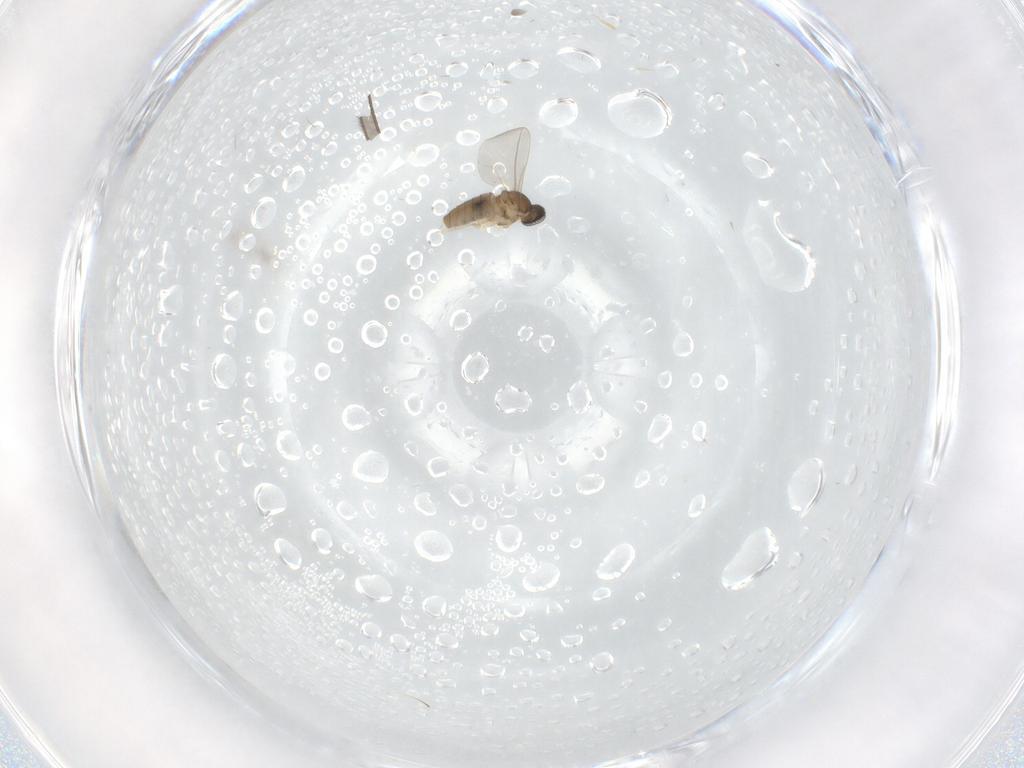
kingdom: Animalia
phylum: Arthropoda
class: Insecta
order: Diptera
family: Cecidomyiidae
